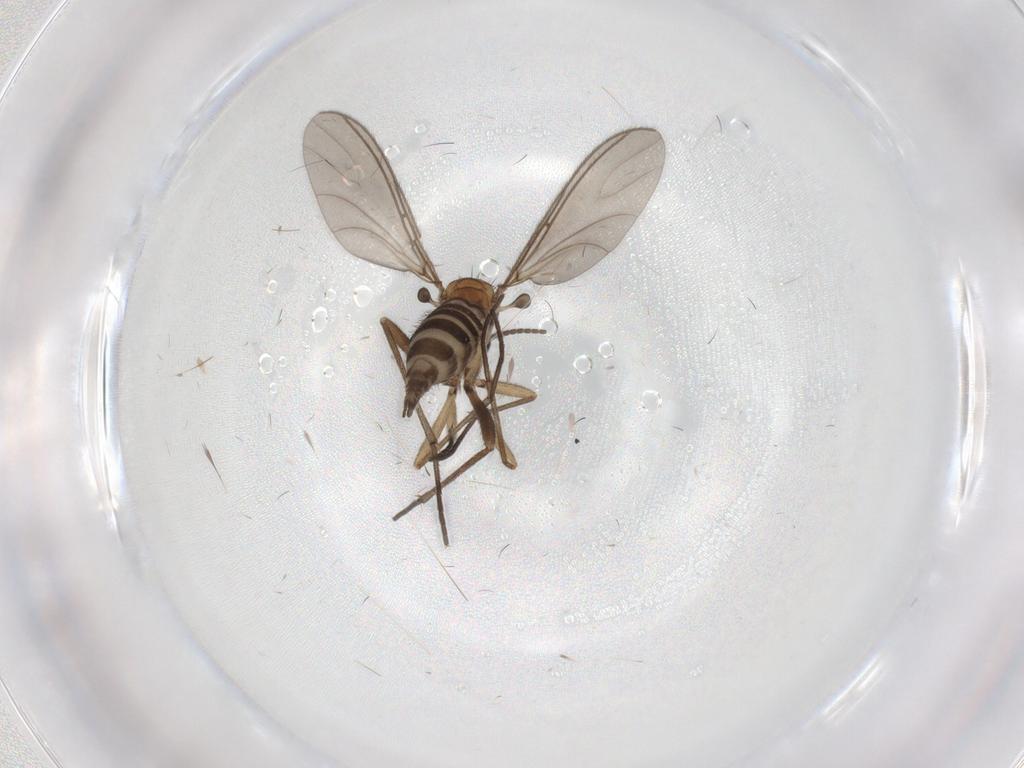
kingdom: Animalia
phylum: Arthropoda
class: Insecta
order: Diptera
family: Sciaridae
